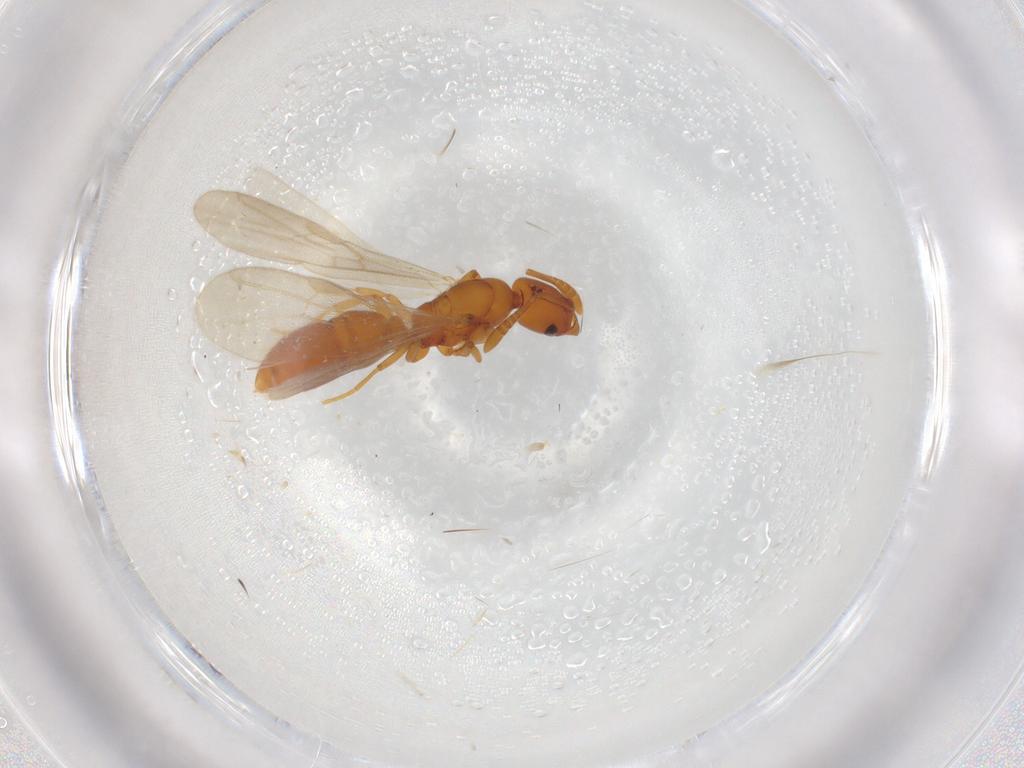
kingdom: Animalia
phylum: Arthropoda
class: Insecta
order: Hymenoptera
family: Formicidae
